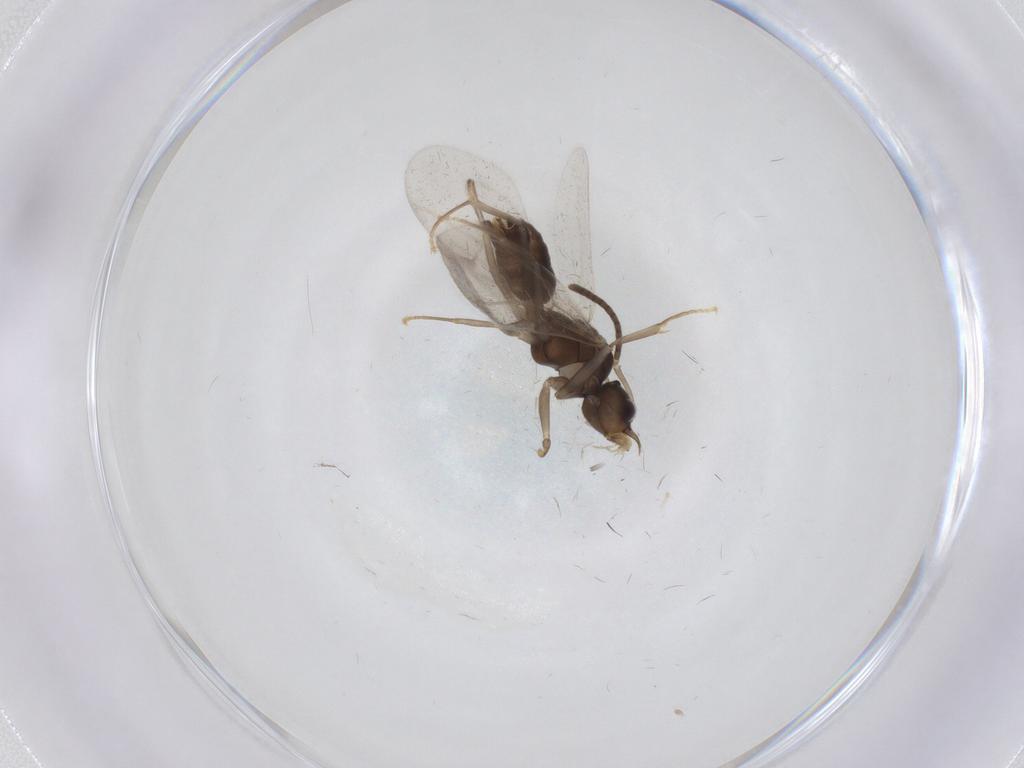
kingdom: Animalia
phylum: Arthropoda
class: Insecta
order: Hymenoptera
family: Formicidae
